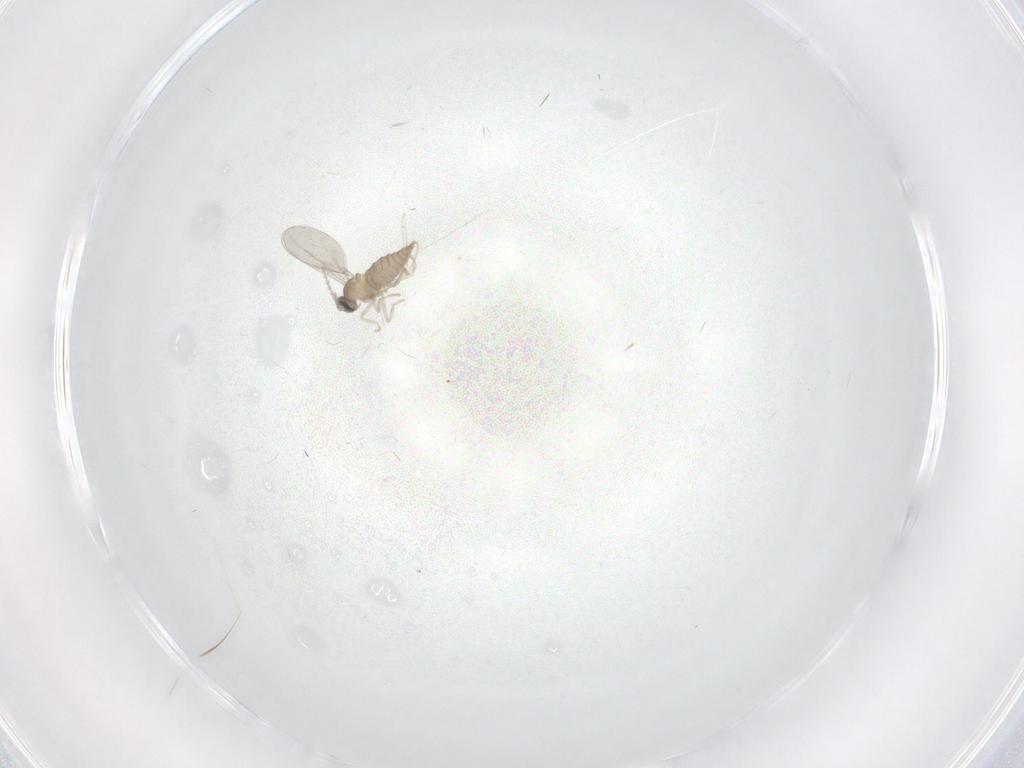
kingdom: Animalia
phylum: Arthropoda
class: Insecta
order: Diptera
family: Cecidomyiidae
